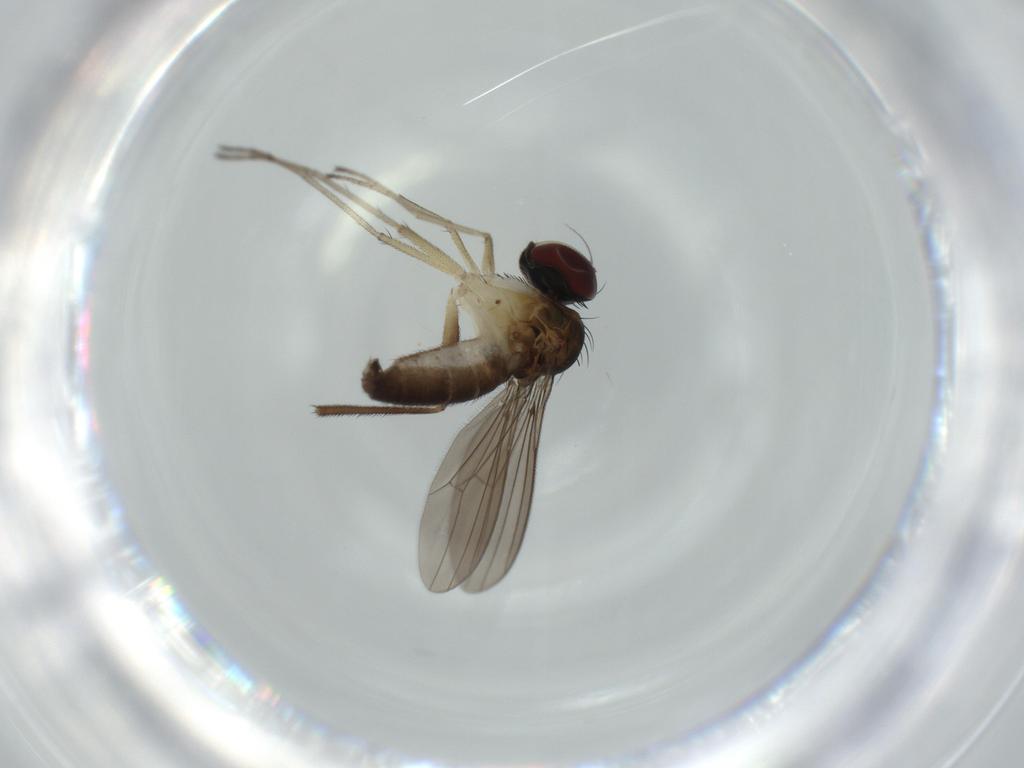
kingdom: Animalia
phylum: Arthropoda
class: Insecta
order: Diptera
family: Dolichopodidae
